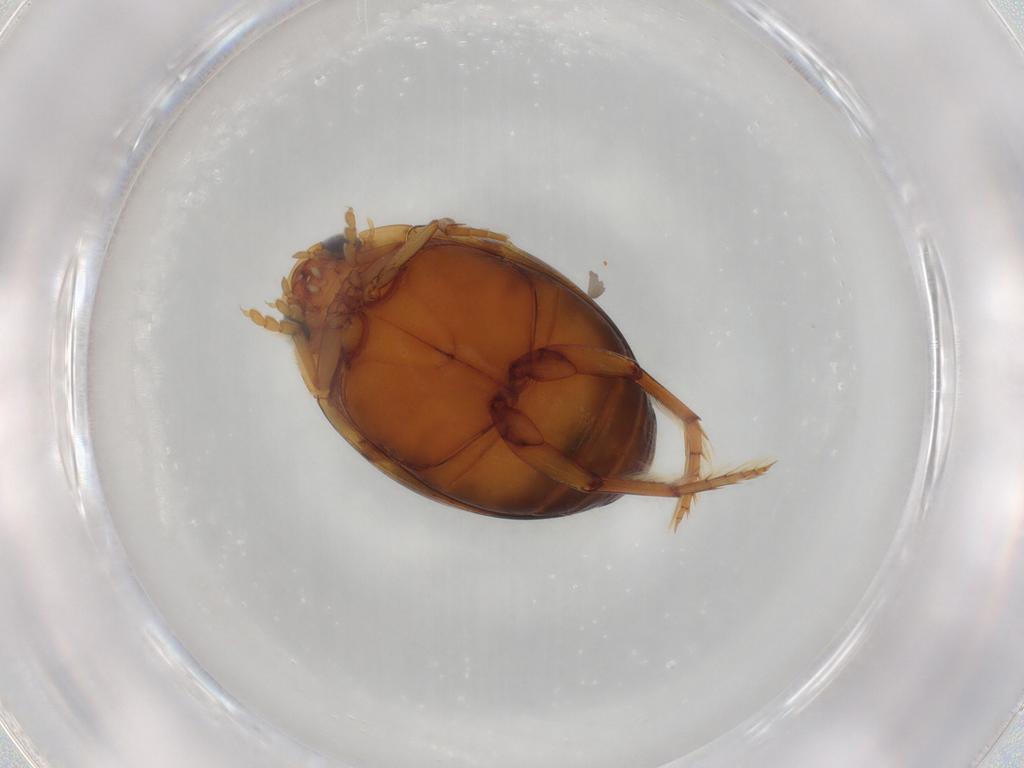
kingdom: Animalia
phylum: Arthropoda
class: Insecta
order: Coleoptera
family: Dytiscidae
